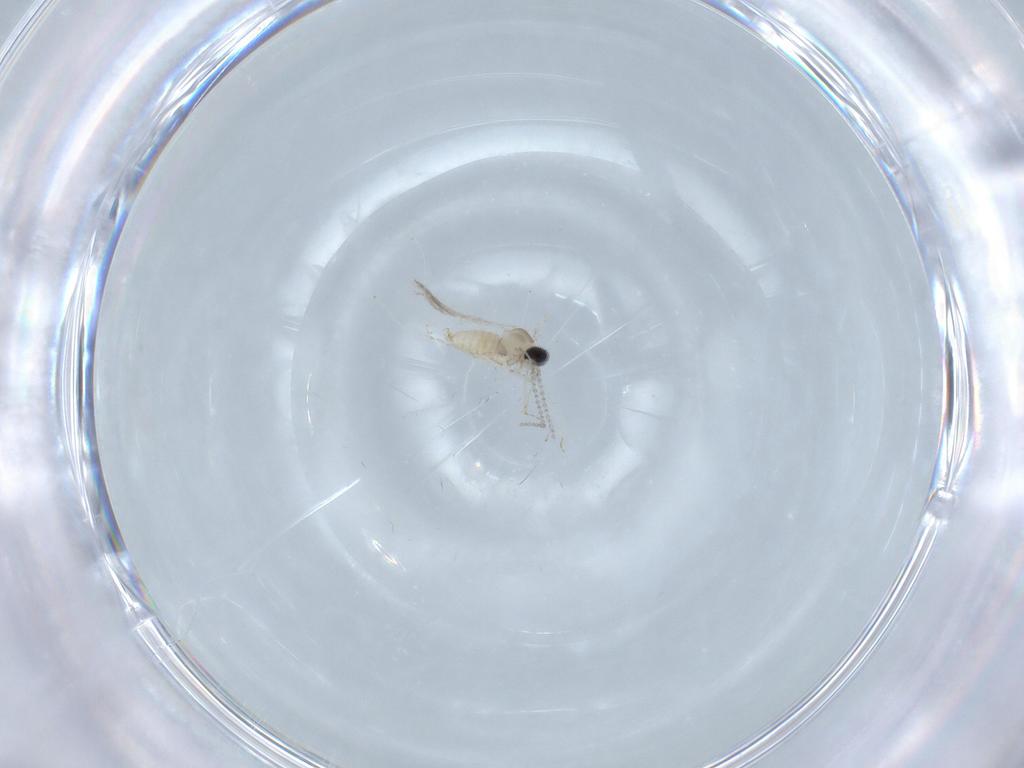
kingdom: Animalia
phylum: Arthropoda
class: Insecta
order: Diptera
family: Cecidomyiidae
